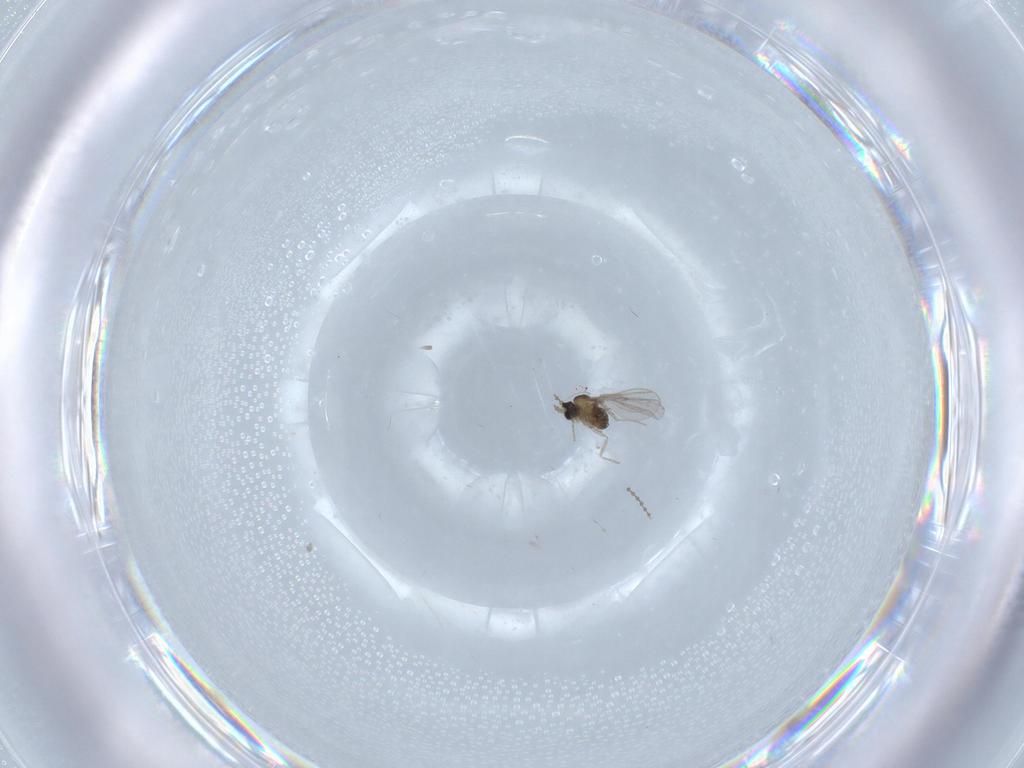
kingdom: Animalia
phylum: Arthropoda
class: Insecta
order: Diptera
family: Cecidomyiidae
